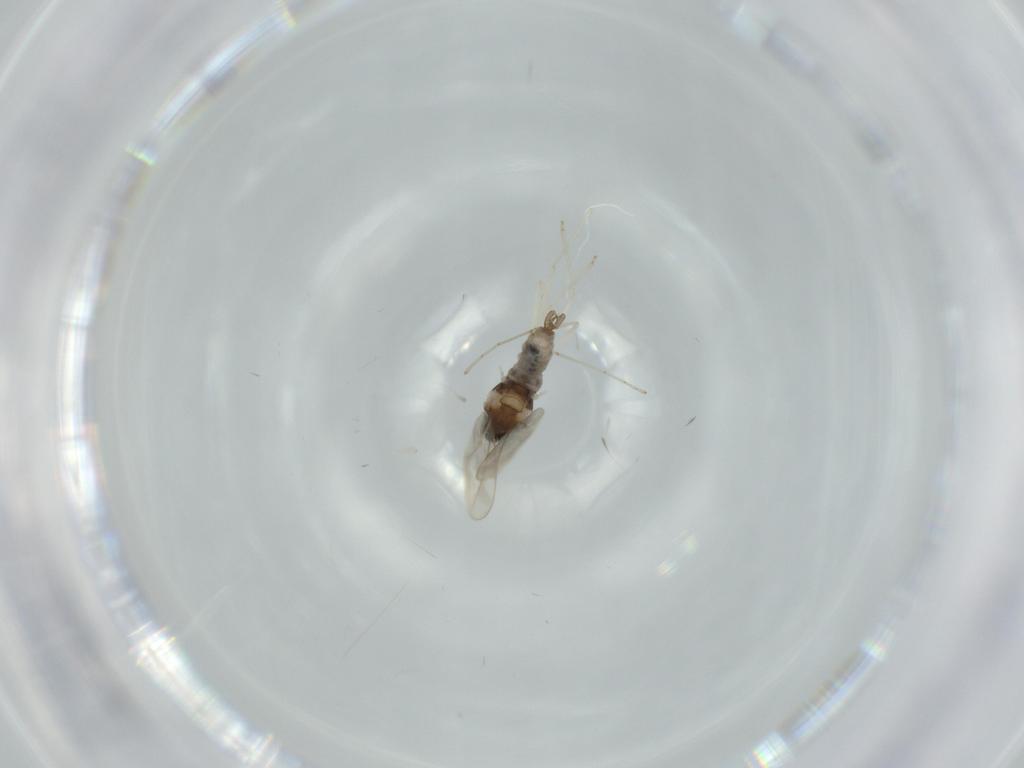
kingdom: Animalia
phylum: Arthropoda
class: Insecta
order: Diptera
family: Cecidomyiidae
